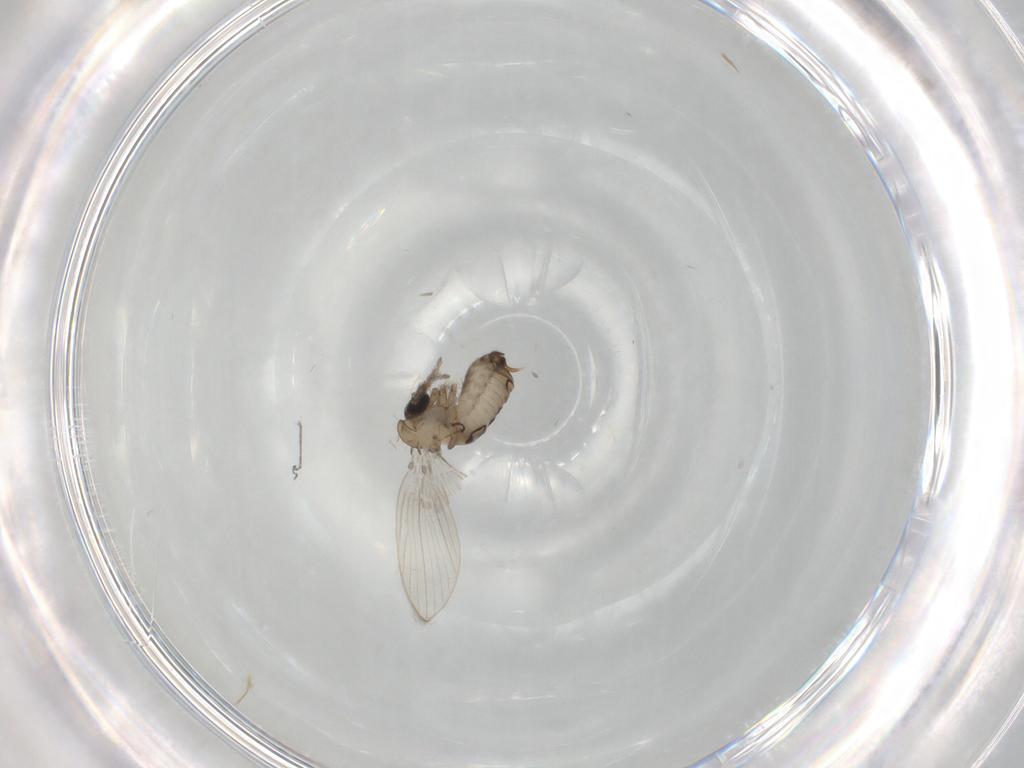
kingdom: Animalia
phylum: Arthropoda
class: Insecta
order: Diptera
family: Psychodidae
